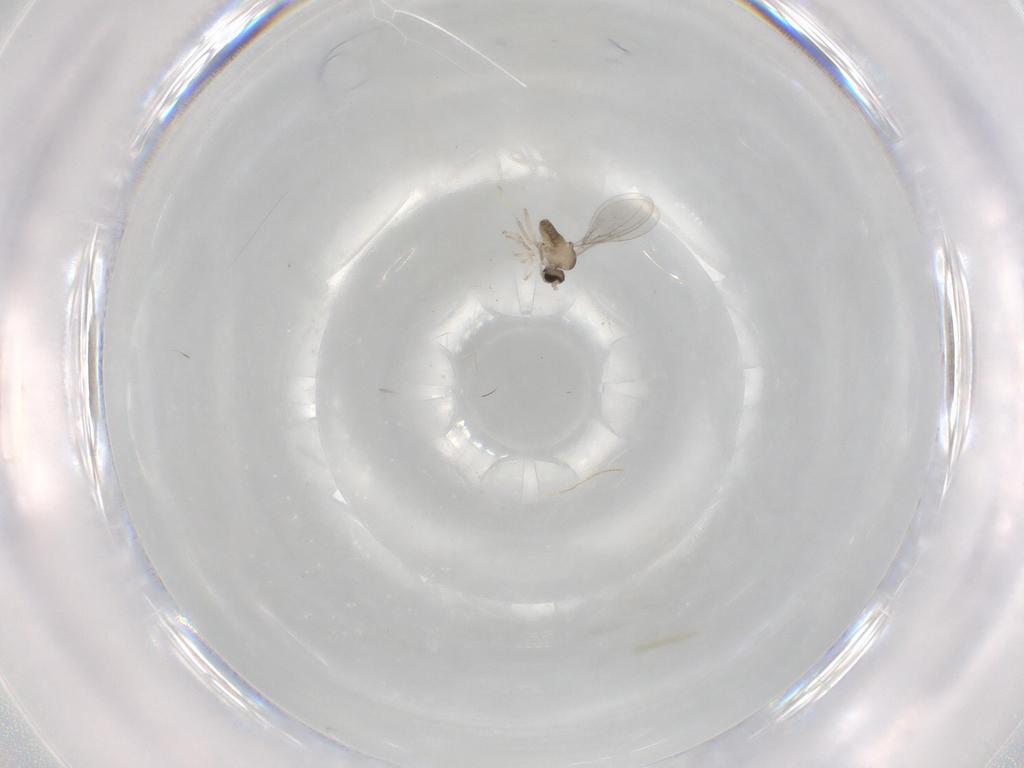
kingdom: Animalia
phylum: Arthropoda
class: Insecta
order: Diptera
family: Cecidomyiidae
